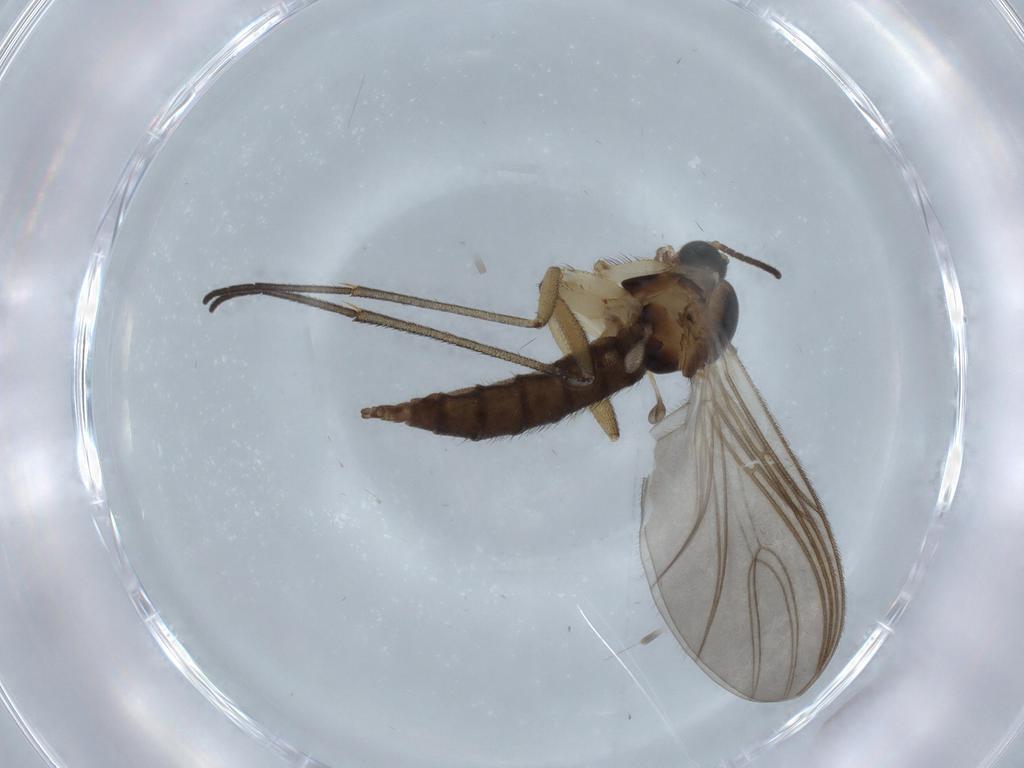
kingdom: Animalia
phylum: Arthropoda
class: Insecta
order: Diptera
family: Sciaridae
